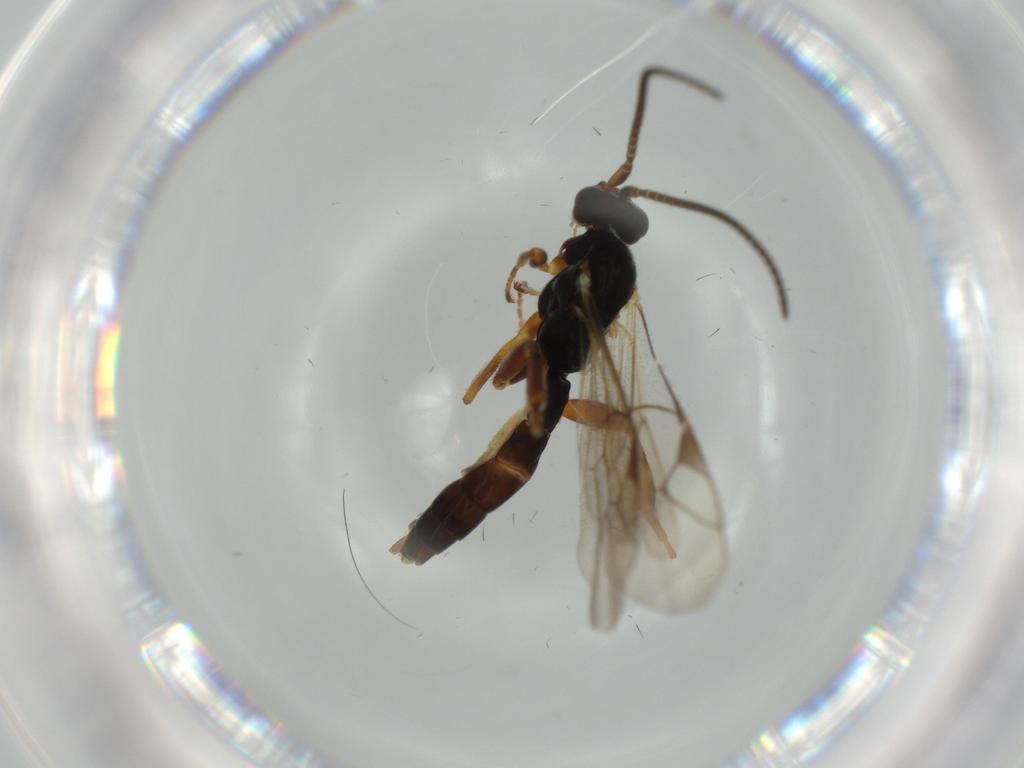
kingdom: Animalia
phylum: Arthropoda
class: Insecta
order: Hymenoptera
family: Ichneumonidae
